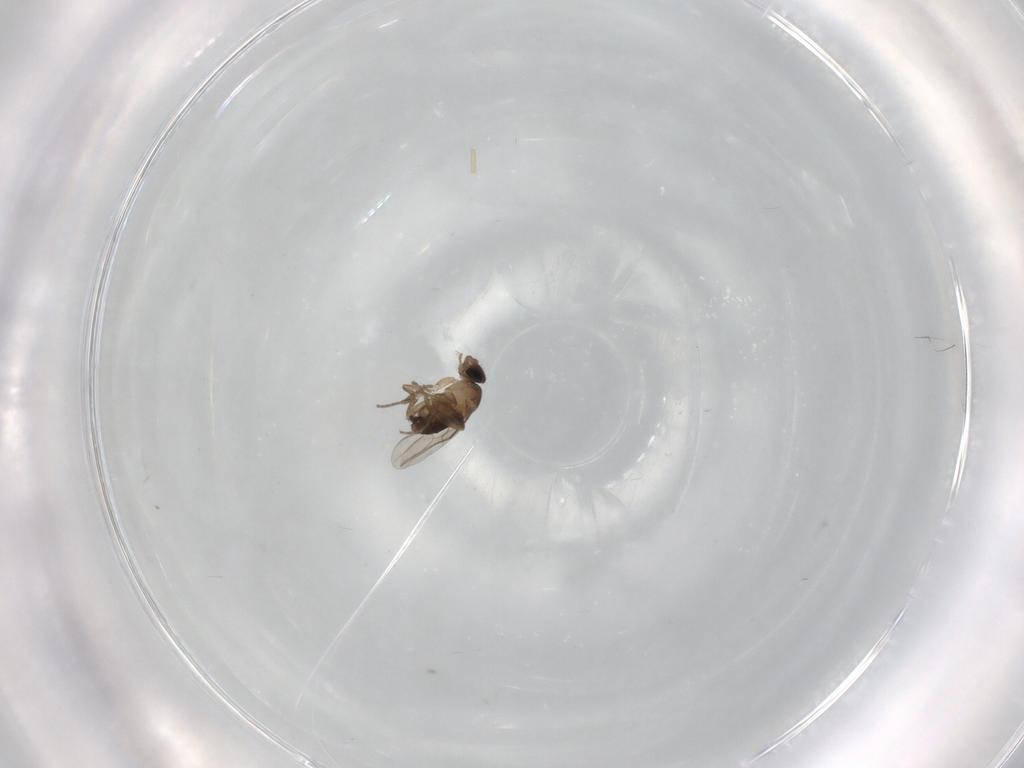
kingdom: Animalia
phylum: Arthropoda
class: Insecta
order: Diptera
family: Phoridae
